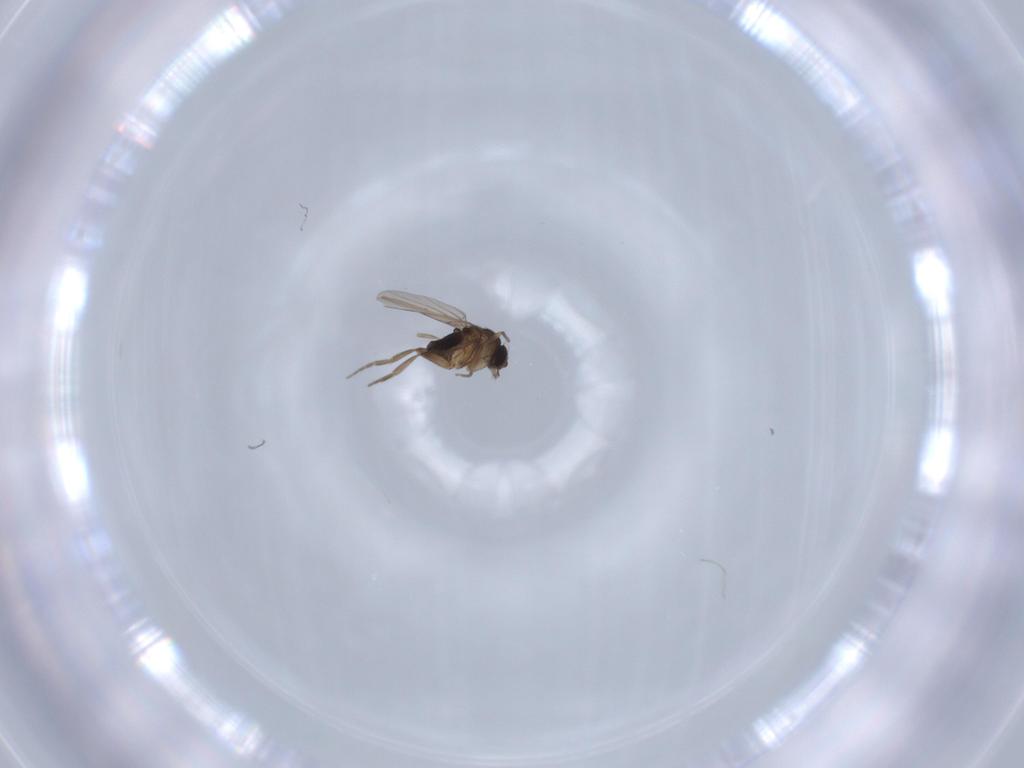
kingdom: Animalia
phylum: Arthropoda
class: Insecta
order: Diptera
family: Phoridae
